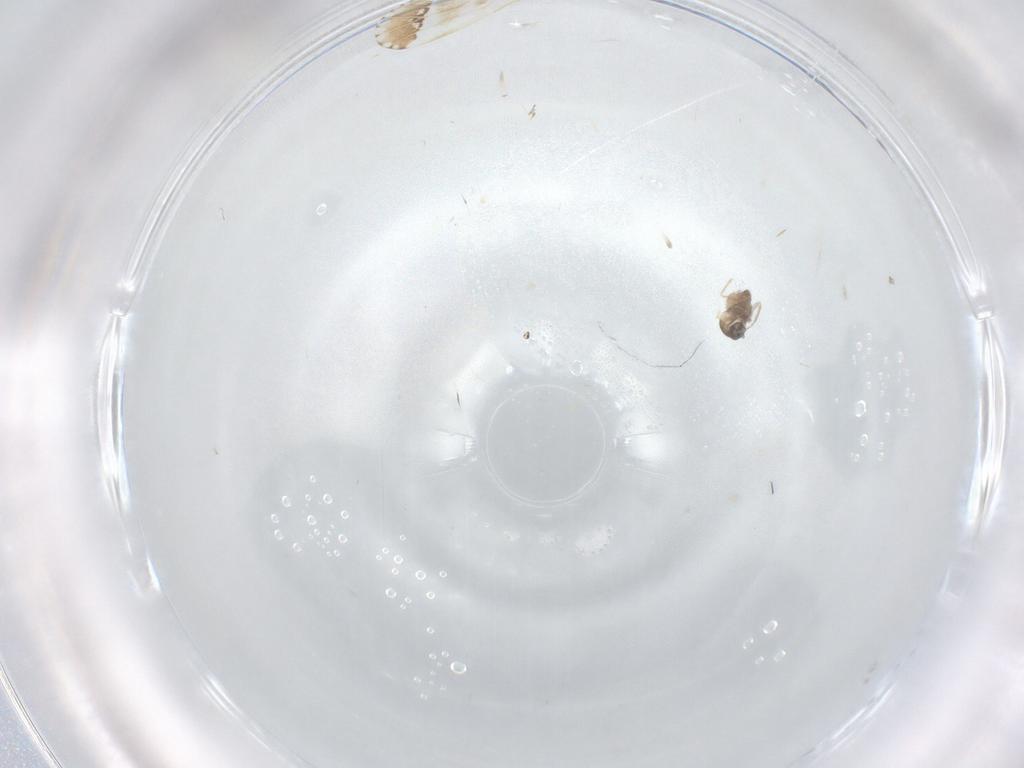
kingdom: Animalia
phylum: Arthropoda
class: Insecta
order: Diptera
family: Cecidomyiidae
